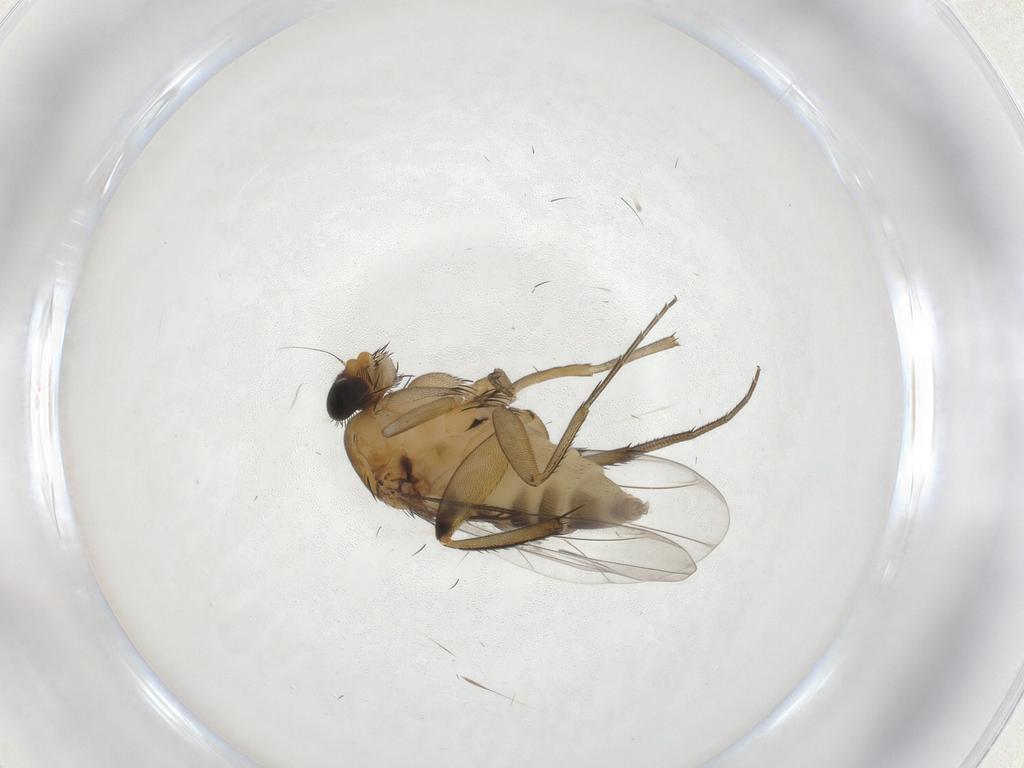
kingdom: Animalia
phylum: Arthropoda
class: Insecta
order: Diptera
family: Phoridae
